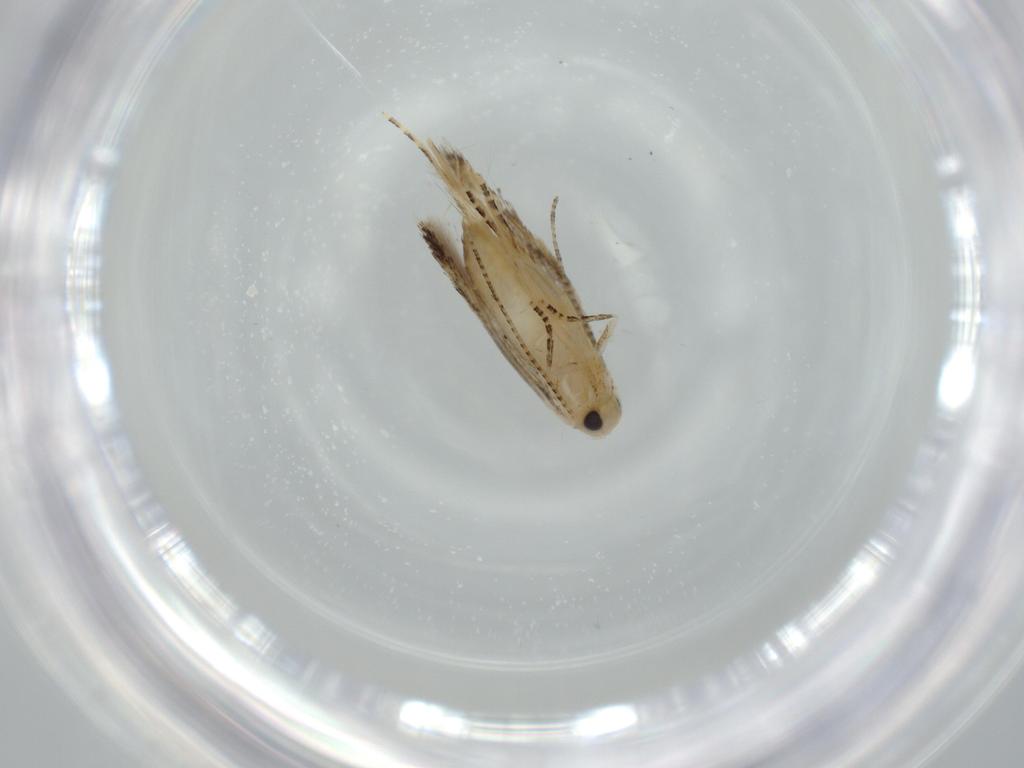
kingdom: Animalia
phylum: Arthropoda
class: Insecta
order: Lepidoptera
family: Bucculatricidae
